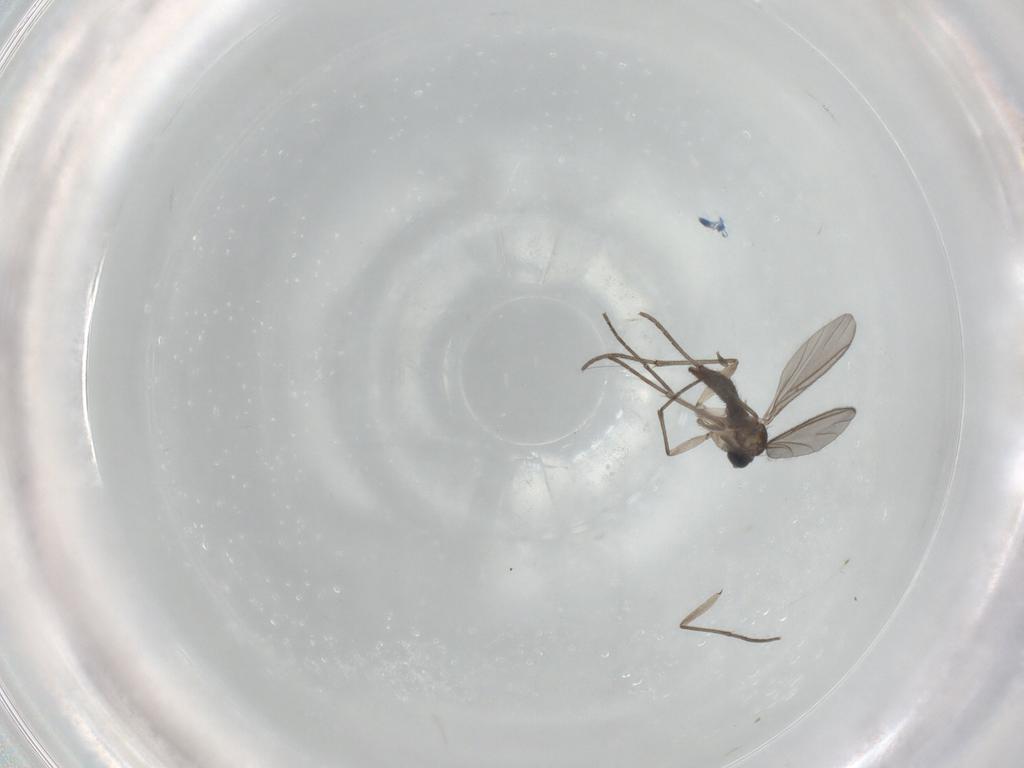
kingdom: Animalia
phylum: Arthropoda
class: Insecta
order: Diptera
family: Sciaridae
